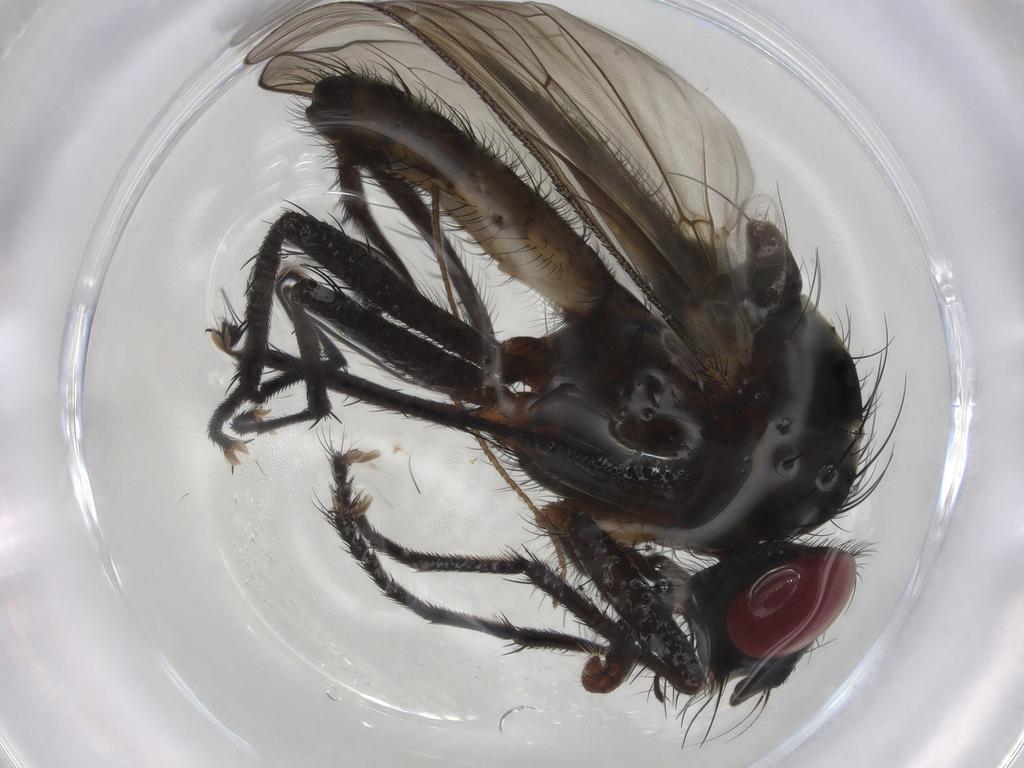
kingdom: Animalia
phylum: Arthropoda
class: Insecta
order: Diptera
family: Anthomyiidae
